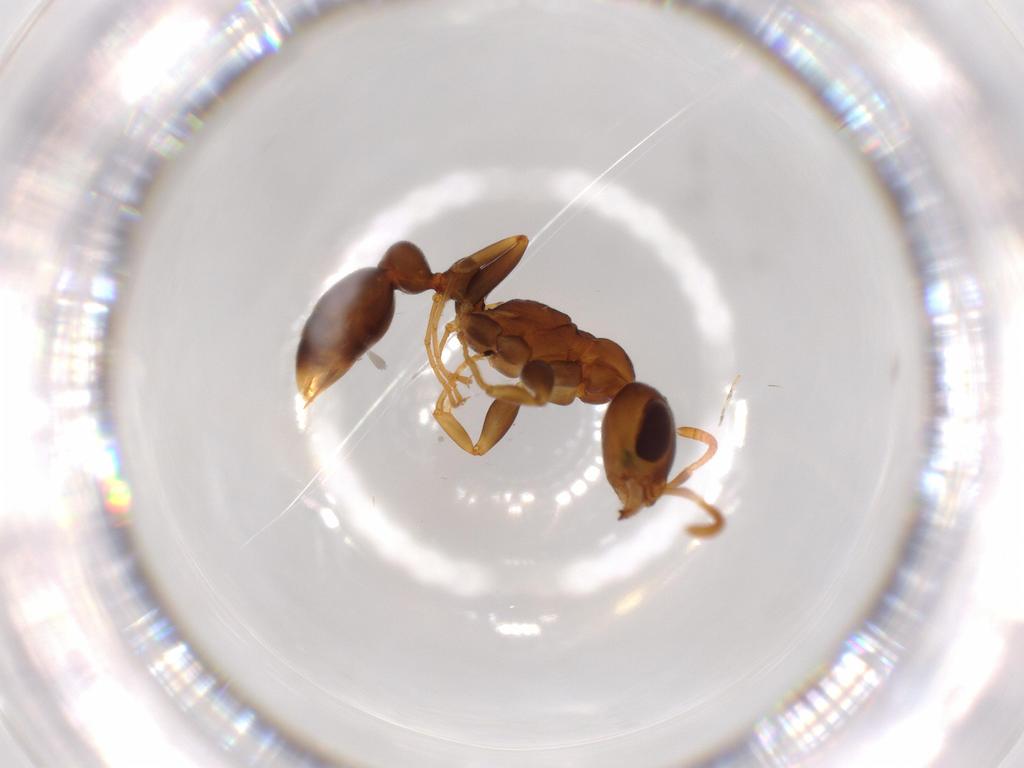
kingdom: Animalia
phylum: Arthropoda
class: Insecta
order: Hymenoptera
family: Formicidae
